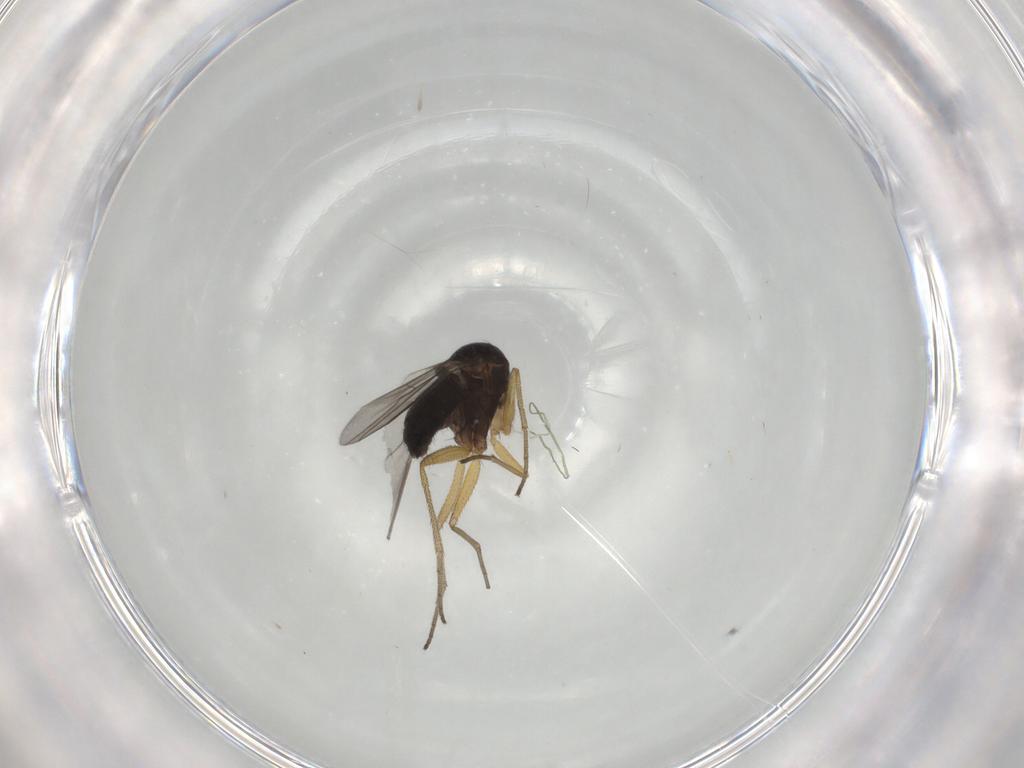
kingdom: Animalia
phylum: Arthropoda
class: Insecta
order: Diptera
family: Dolichopodidae
